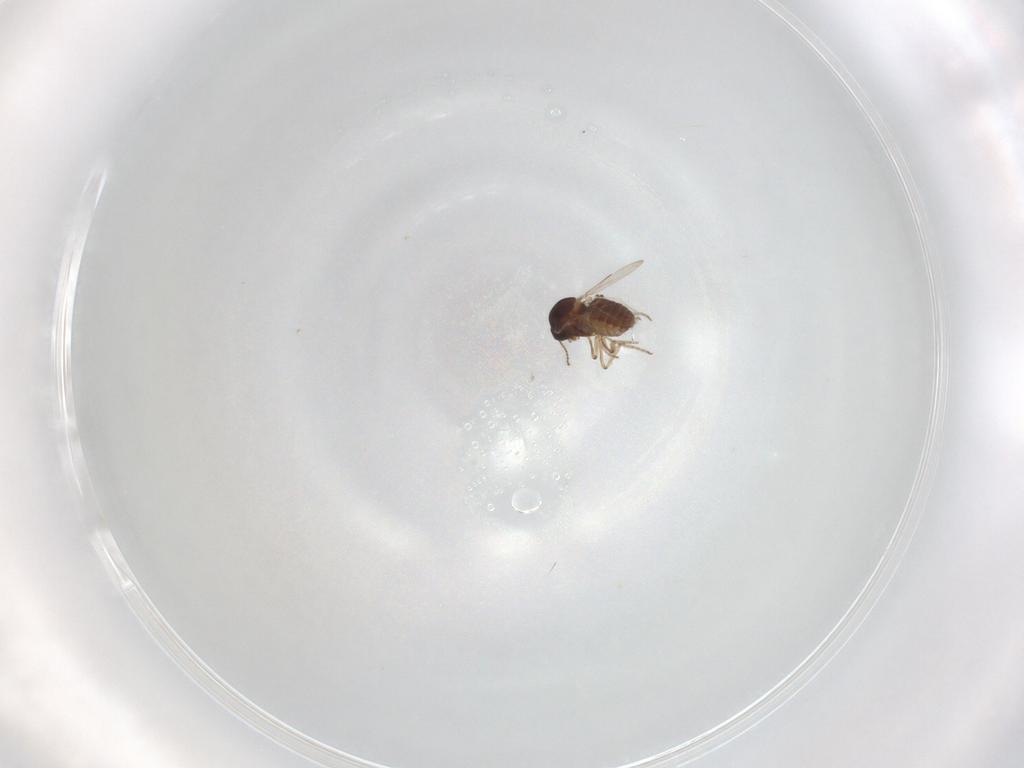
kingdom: Animalia
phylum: Arthropoda
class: Insecta
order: Diptera
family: Ceratopogonidae
